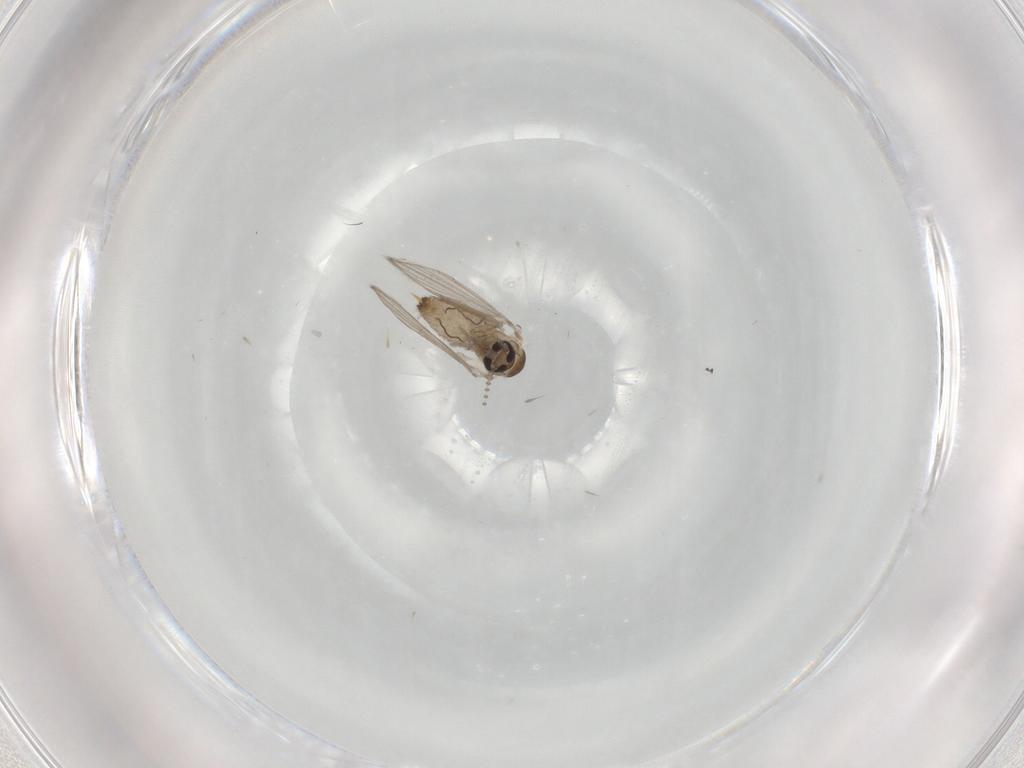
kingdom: Animalia
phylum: Arthropoda
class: Insecta
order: Diptera
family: Psychodidae
